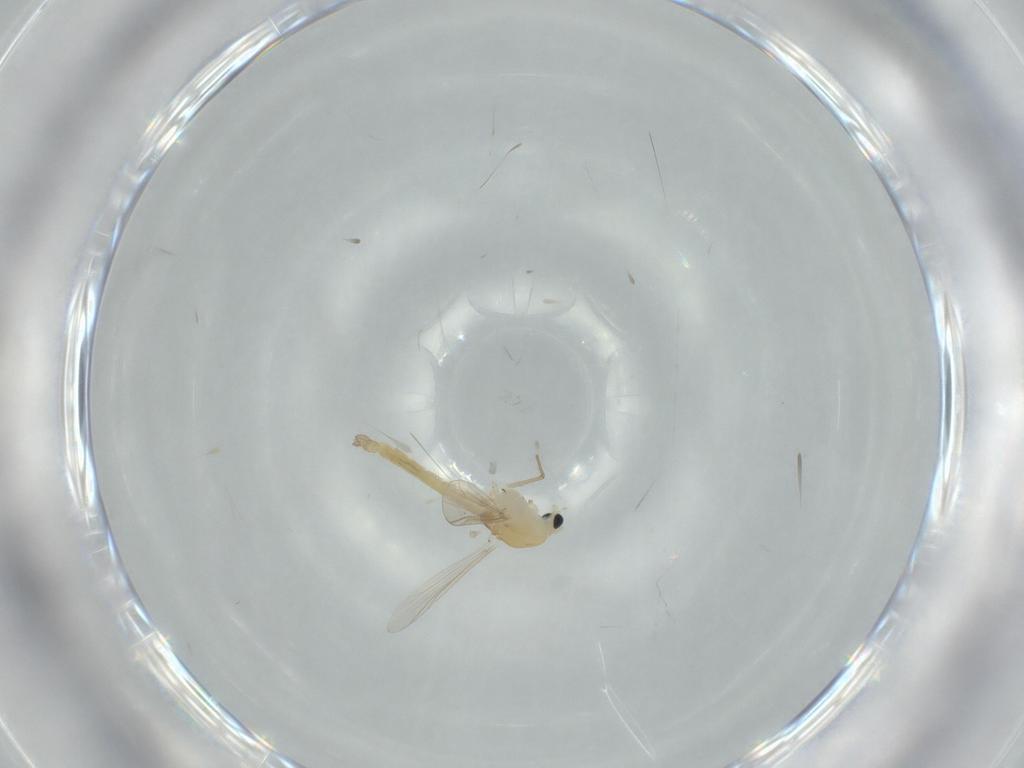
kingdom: Animalia
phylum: Arthropoda
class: Insecta
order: Diptera
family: Chironomidae
